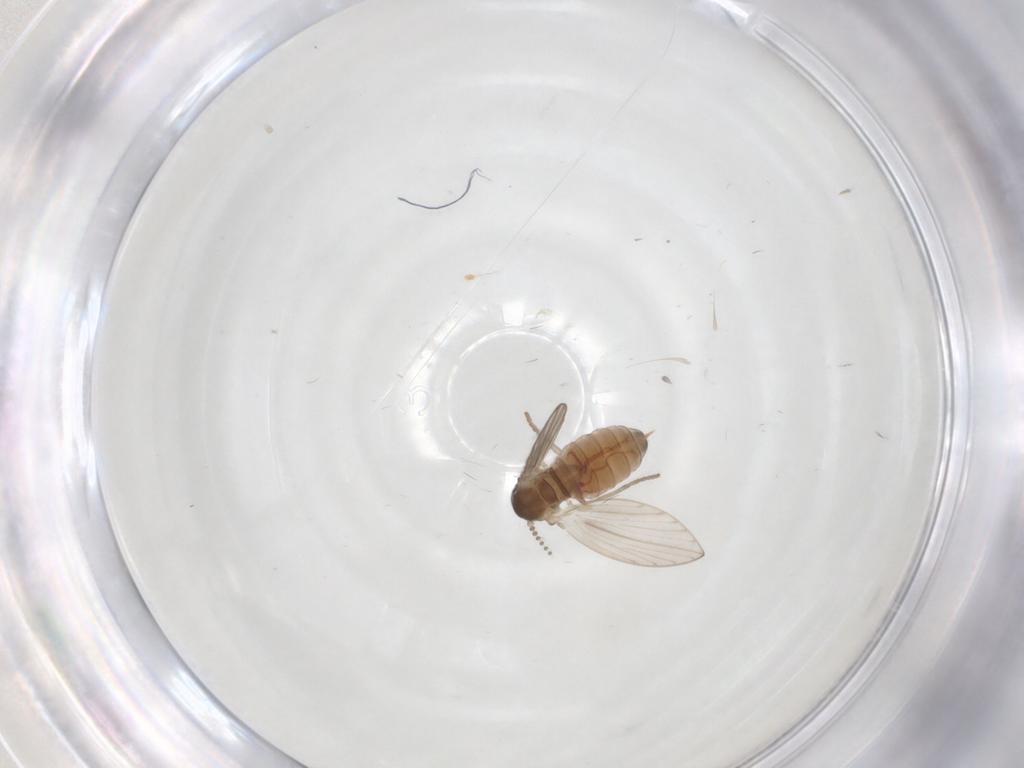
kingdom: Animalia
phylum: Arthropoda
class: Insecta
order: Diptera
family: Psychodidae
